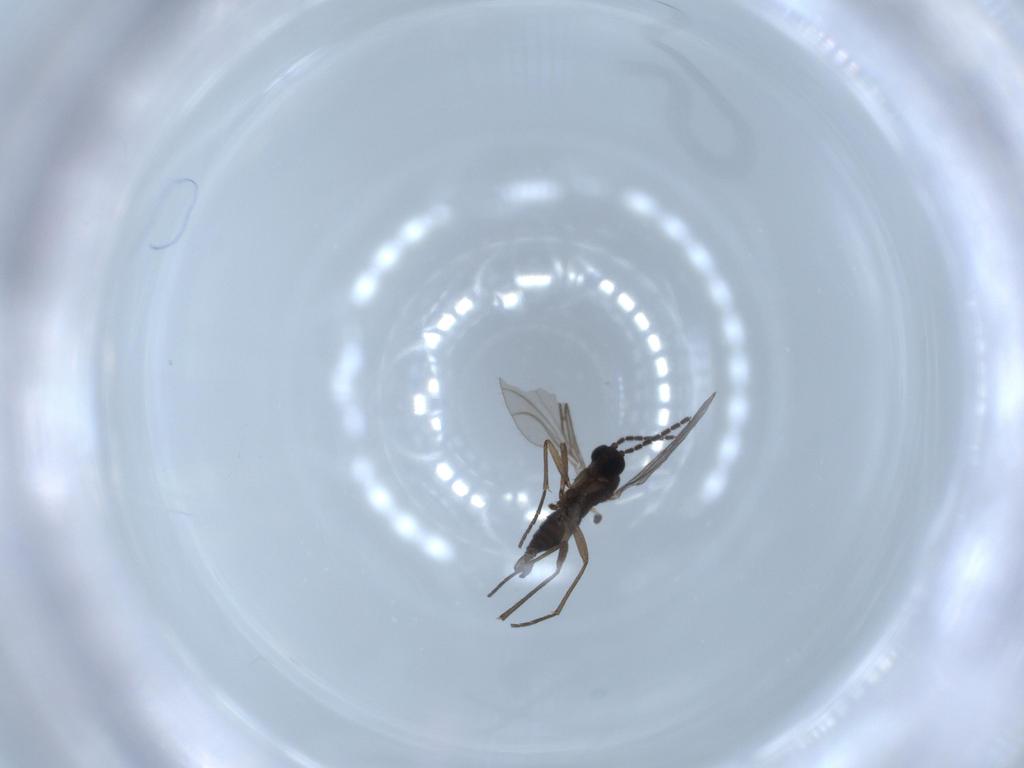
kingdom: Animalia
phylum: Arthropoda
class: Insecta
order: Diptera
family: Sciaridae
